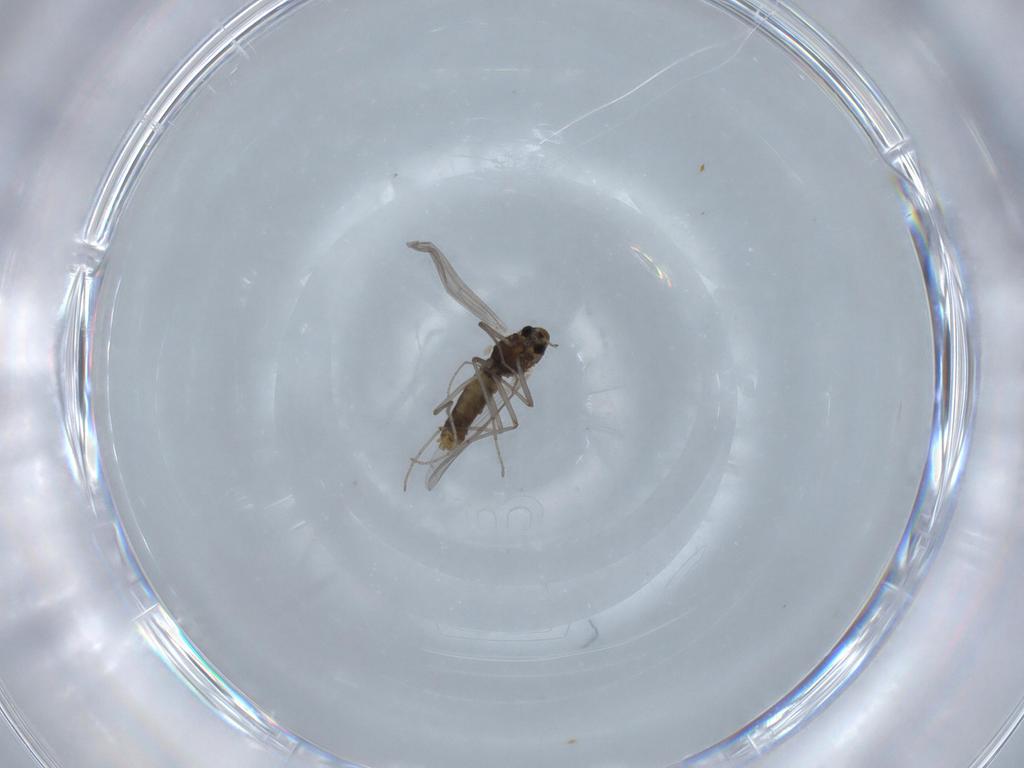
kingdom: Animalia
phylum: Arthropoda
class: Insecta
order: Diptera
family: Chironomidae
